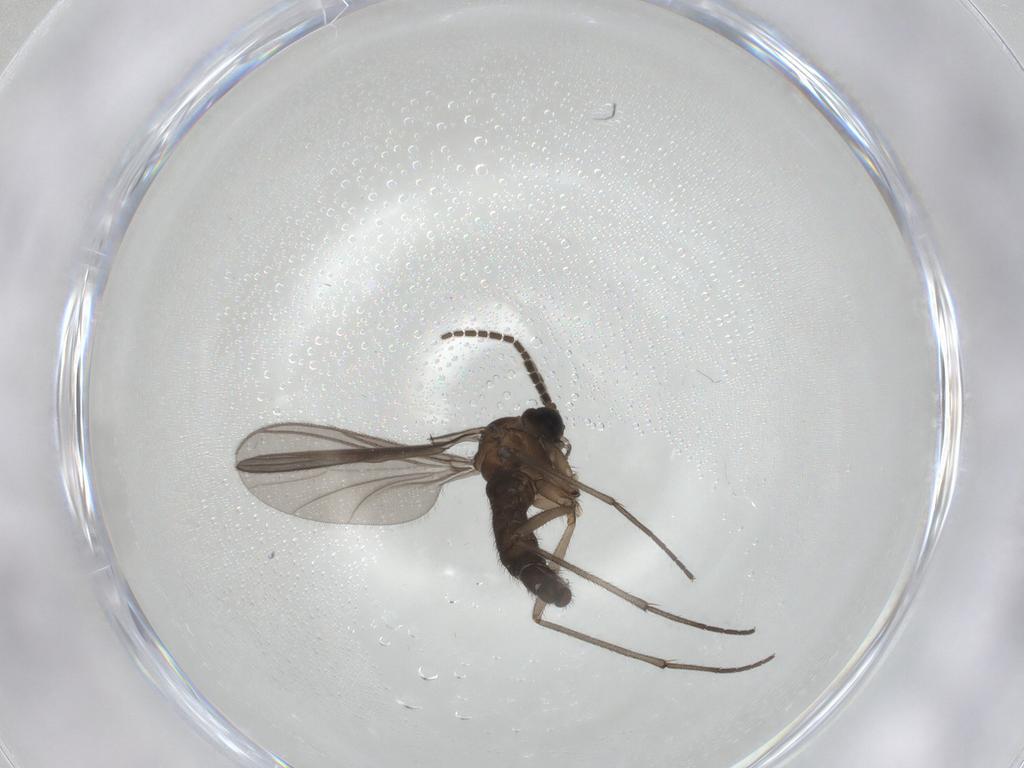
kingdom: Animalia
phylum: Arthropoda
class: Insecta
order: Diptera
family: Sciaridae
